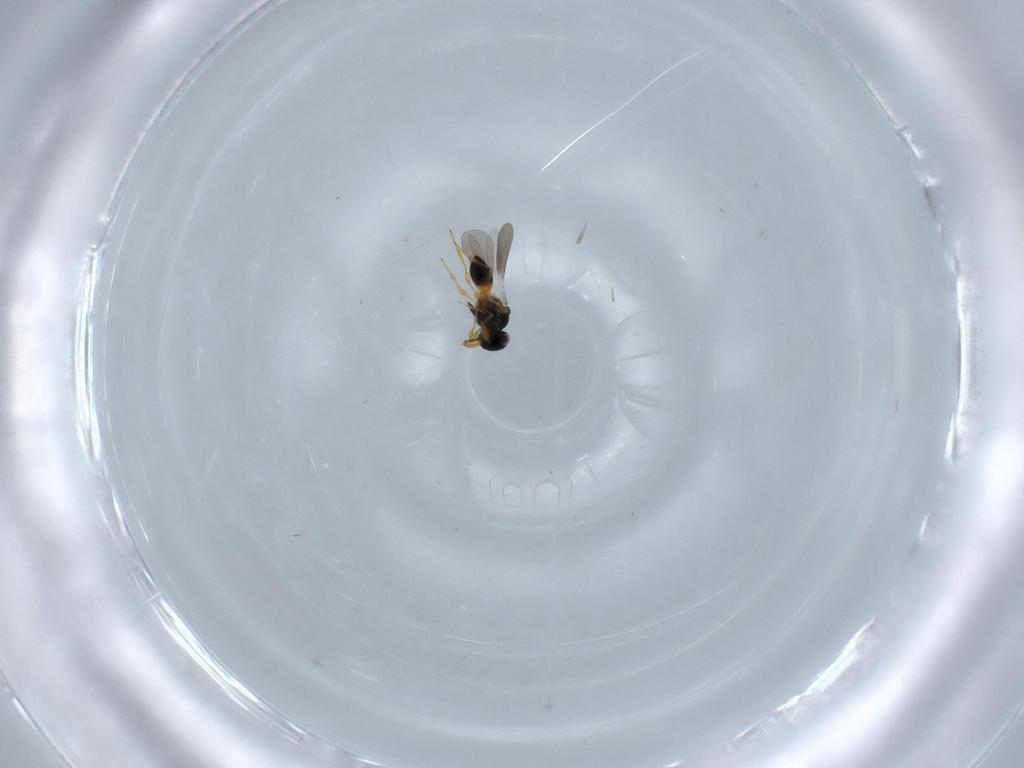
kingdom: Animalia
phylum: Arthropoda
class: Insecta
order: Hymenoptera
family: Platygastridae
